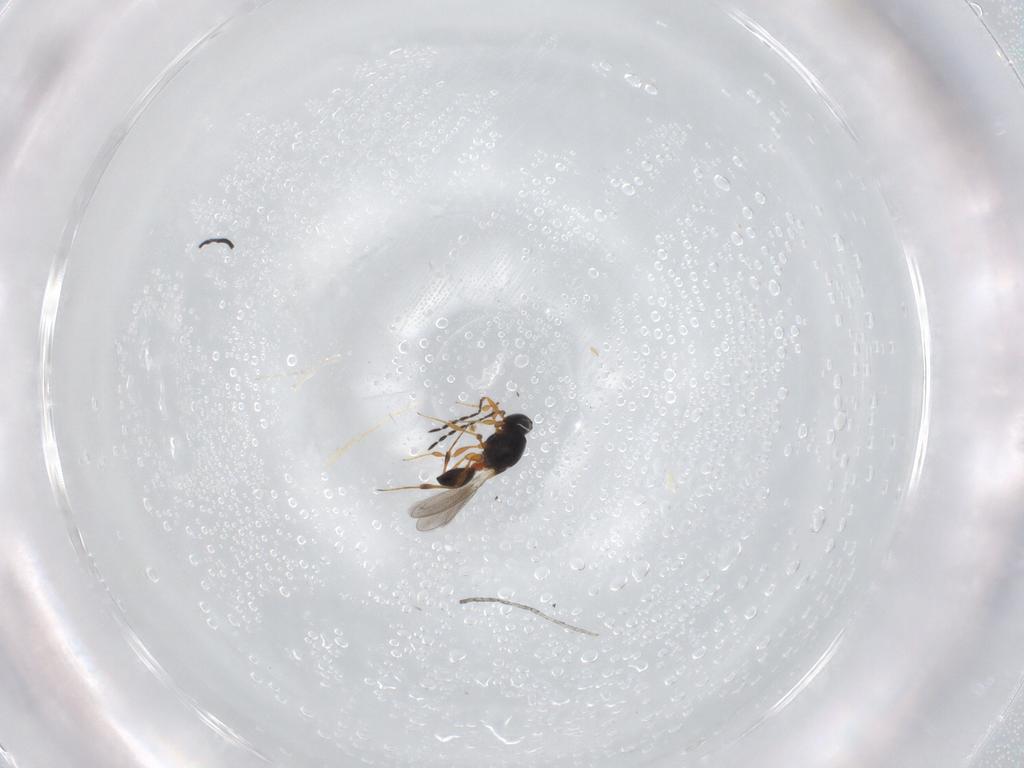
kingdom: Animalia
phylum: Arthropoda
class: Insecta
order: Hymenoptera
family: Platygastridae
